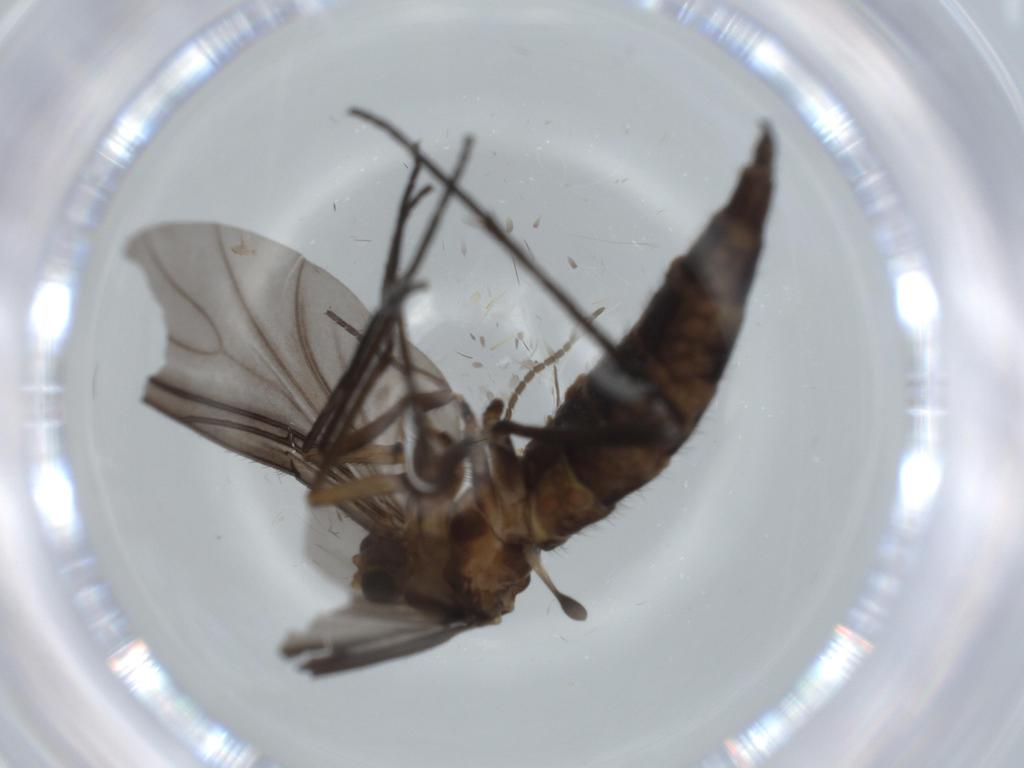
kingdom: Animalia
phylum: Arthropoda
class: Insecta
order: Diptera
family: Sciaridae
